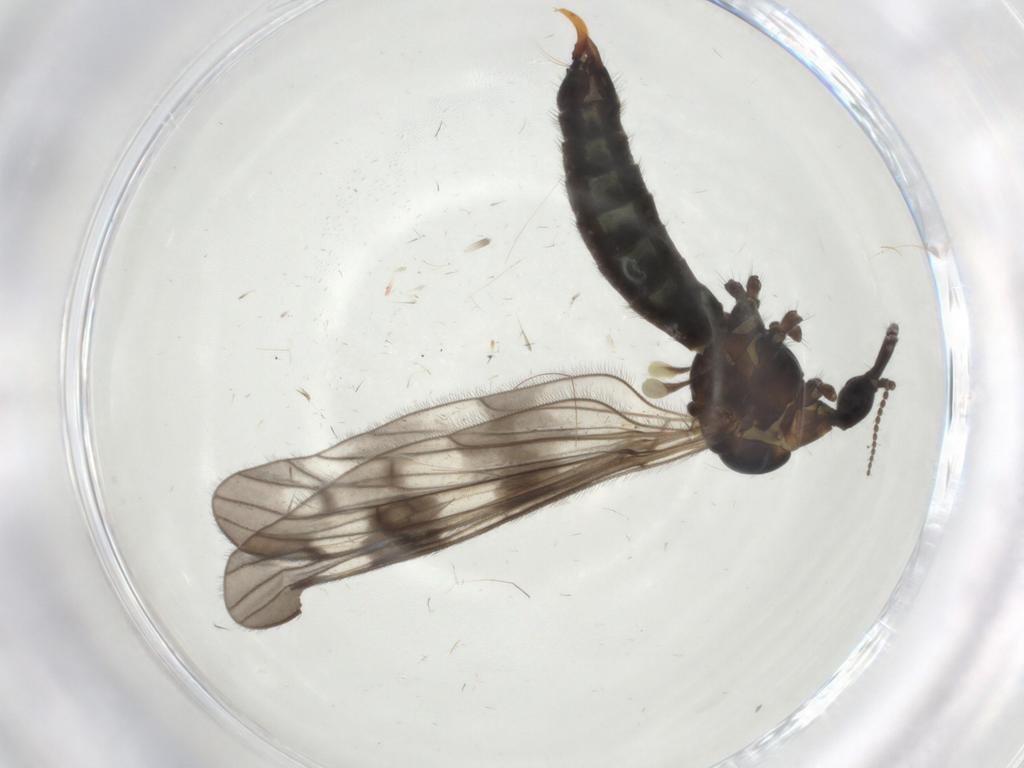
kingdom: Animalia
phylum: Arthropoda
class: Insecta
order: Diptera
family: Limoniidae
